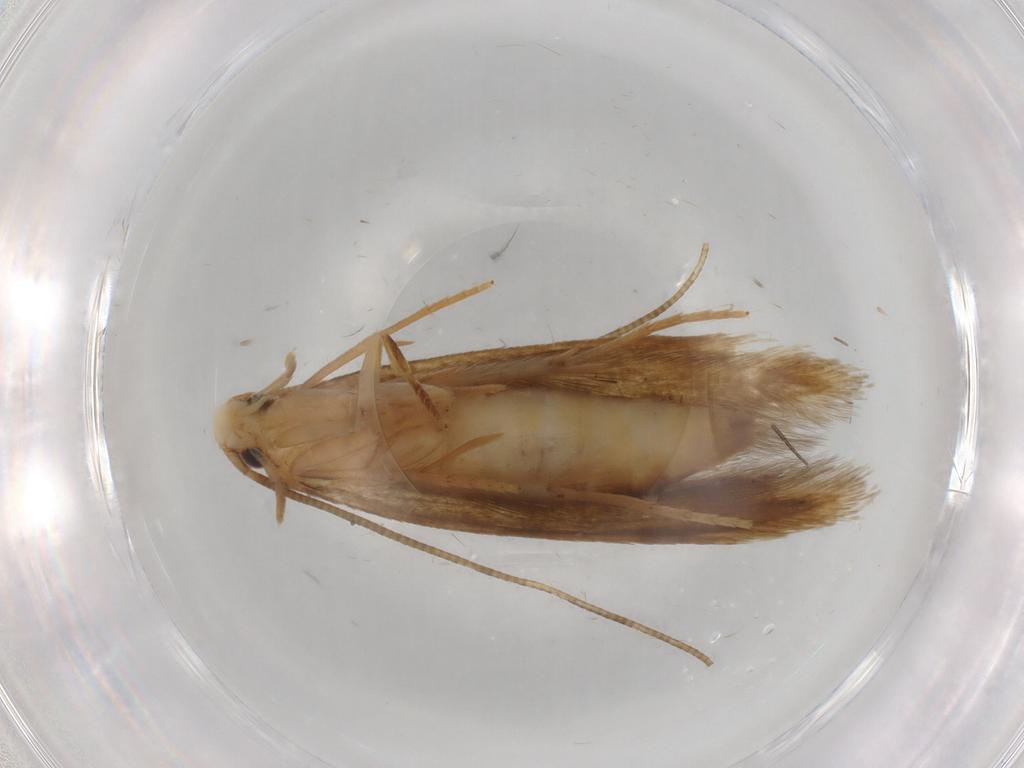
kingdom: Animalia
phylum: Arthropoda
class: Insecta
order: Lepidoptera
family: Tineidae
